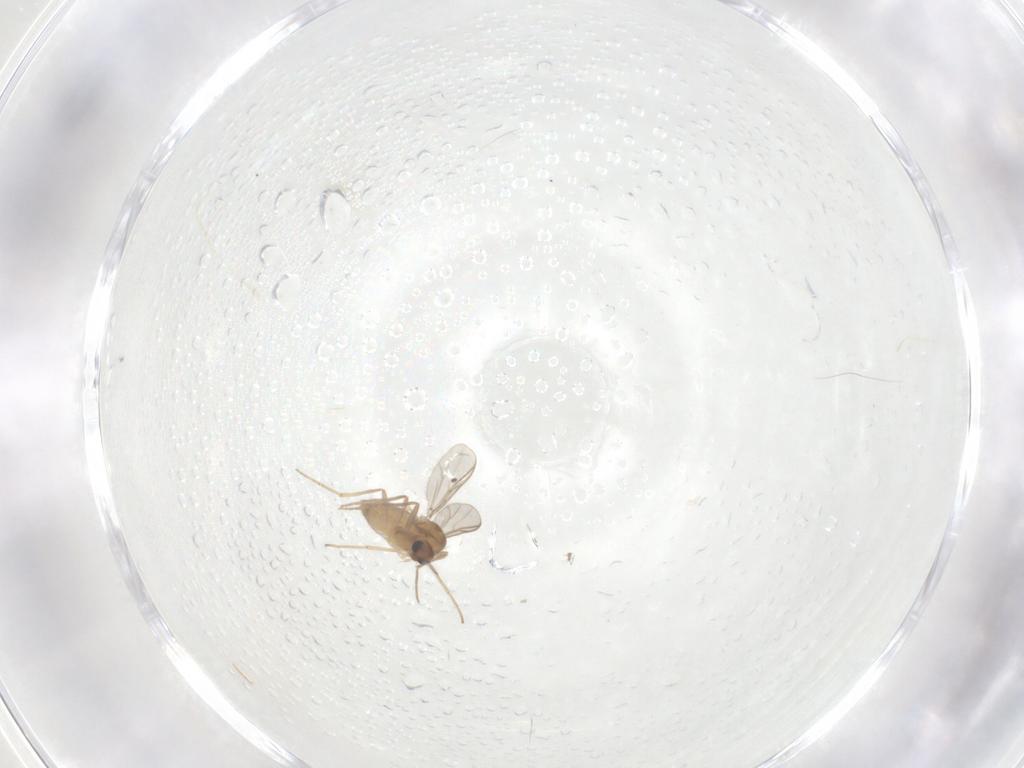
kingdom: Animalia
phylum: Arthropoda
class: Insecta
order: Diptera
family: Chironomidae
